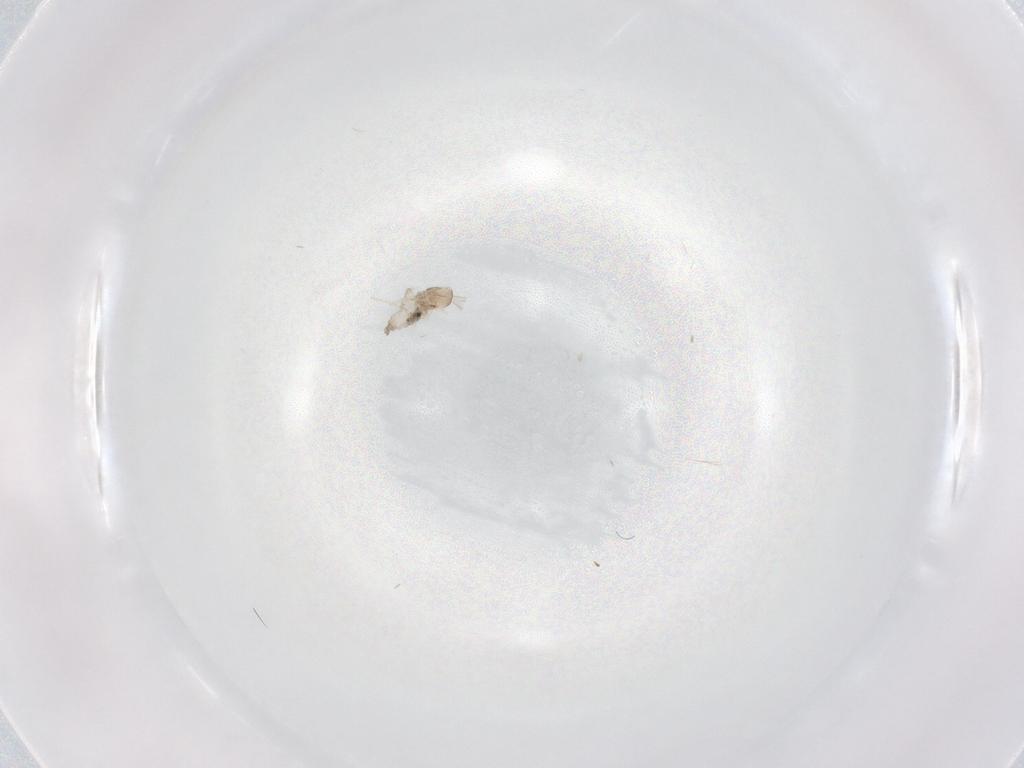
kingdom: Animalia
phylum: Arthropoda
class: Insecta
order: Diptera
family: Cecidomyiidae
